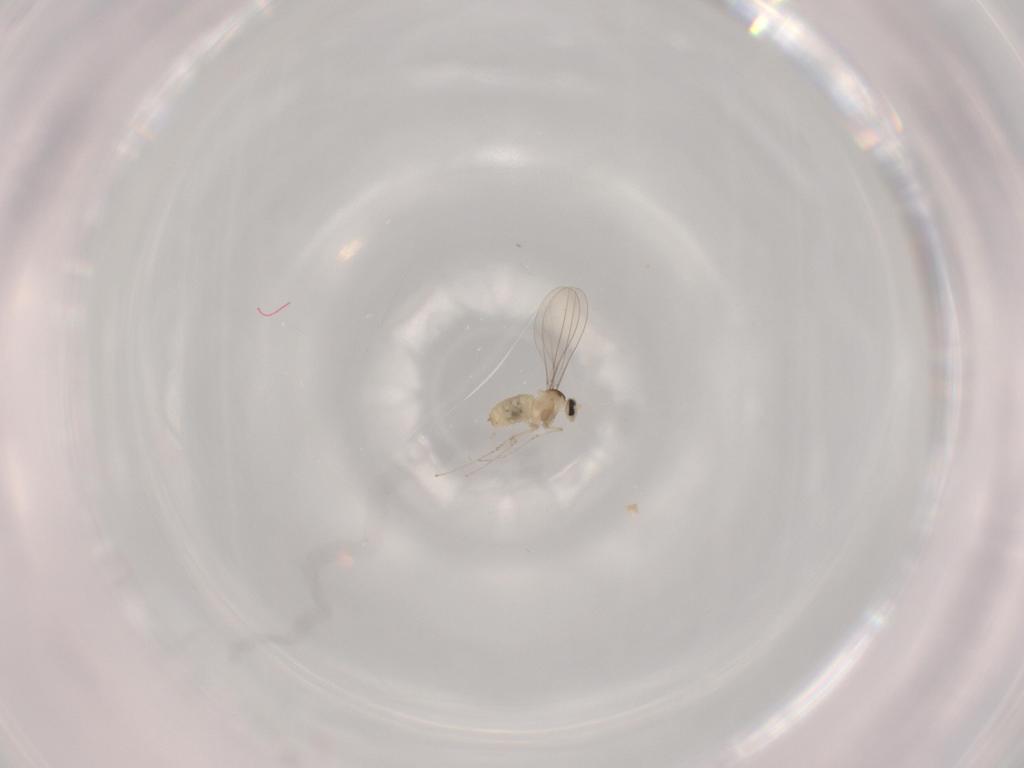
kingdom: Animalia
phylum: Arthropoda
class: Insecta
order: Diptera
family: Cecidomyiidae
